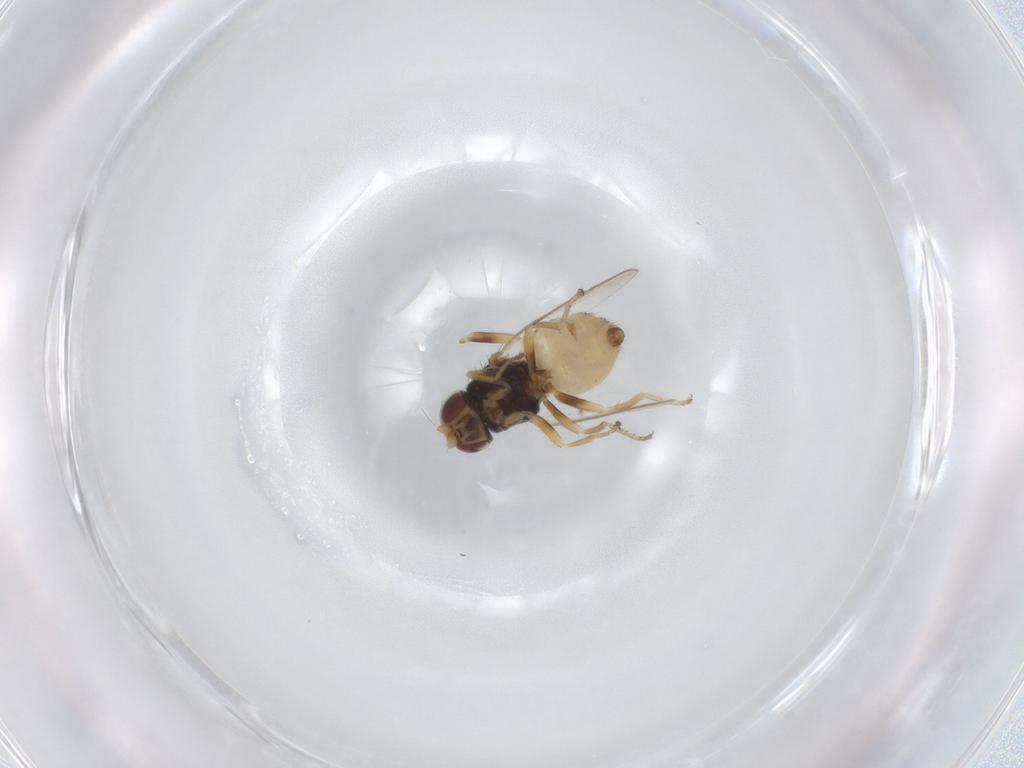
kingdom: Animalia
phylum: Arthropoda
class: Insecta
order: Diptera
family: Chloropidae
